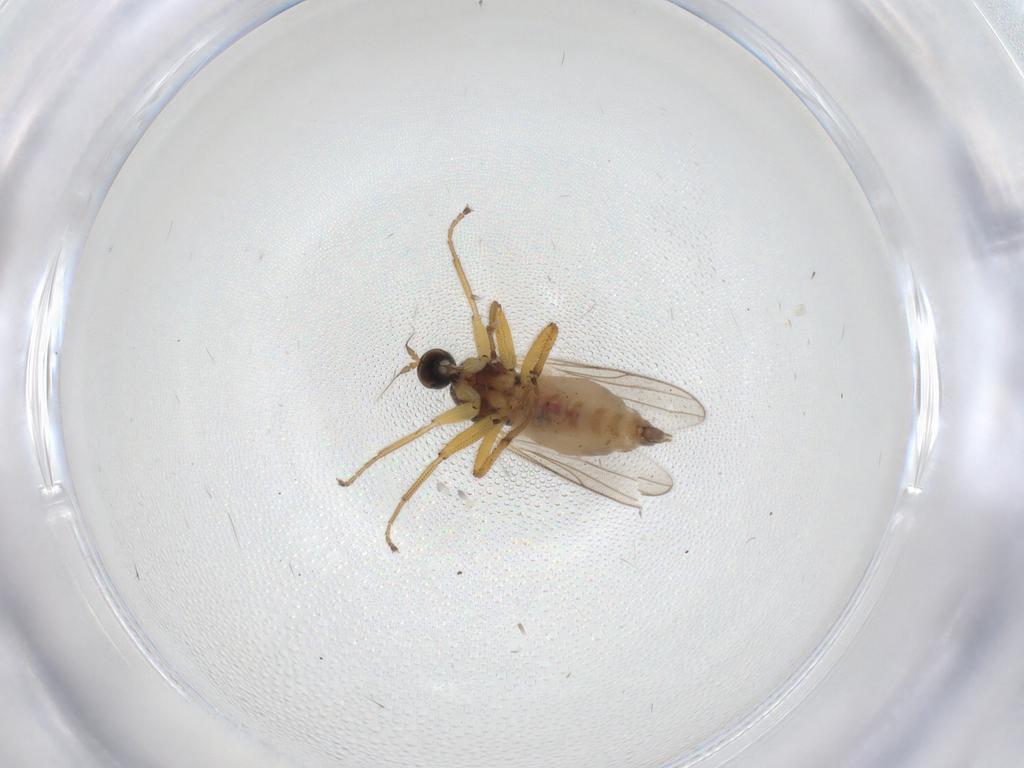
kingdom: Animalia
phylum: Arthropoda
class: Insecta
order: Diptera
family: Hybotidae
